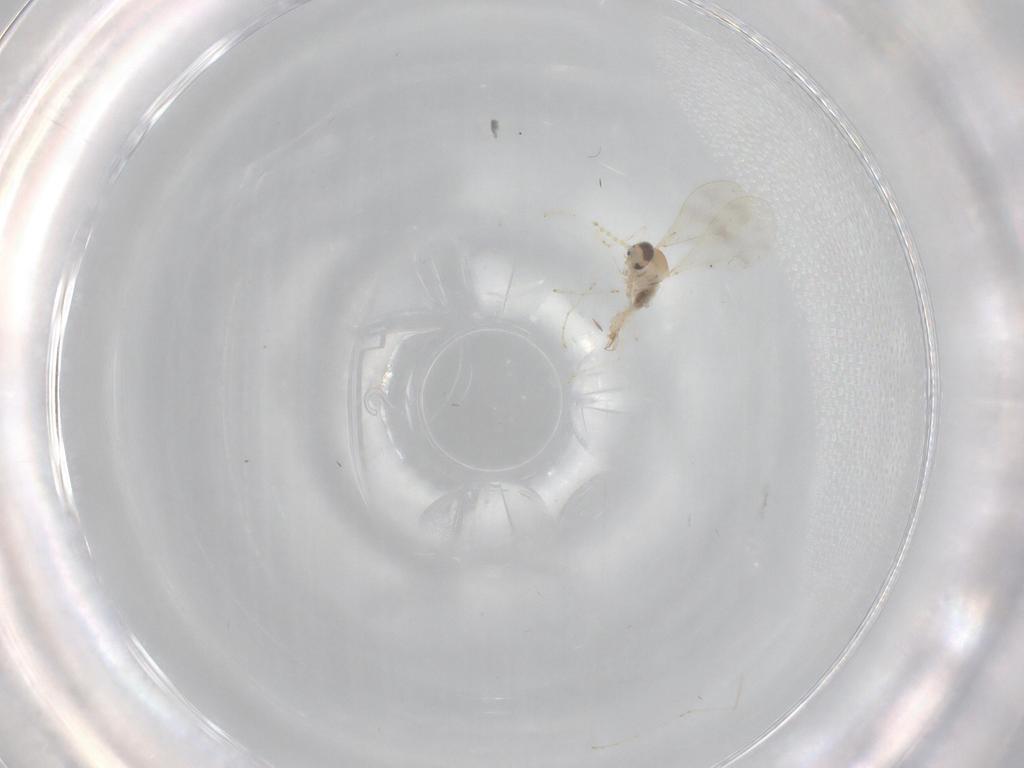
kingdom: Animalia
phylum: Arthropoda
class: Insecta
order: Diptera
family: Cecidomyiidae
